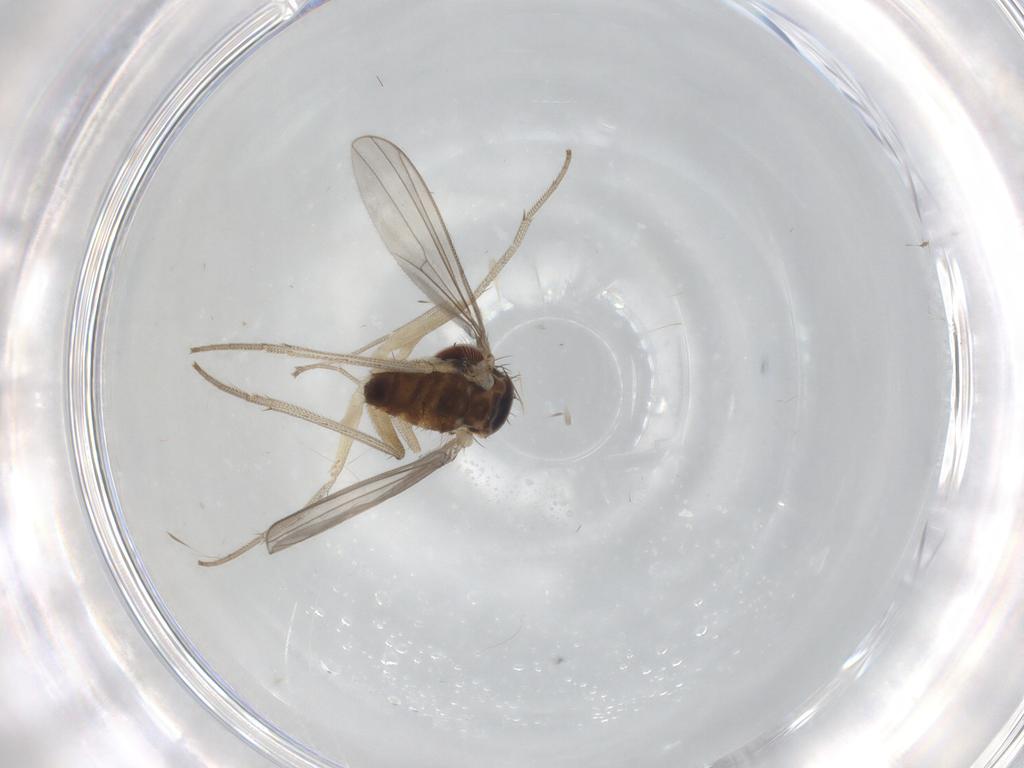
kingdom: Animalia
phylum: Arthropoda
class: Insecta
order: Diptera
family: Dolichopodidae
